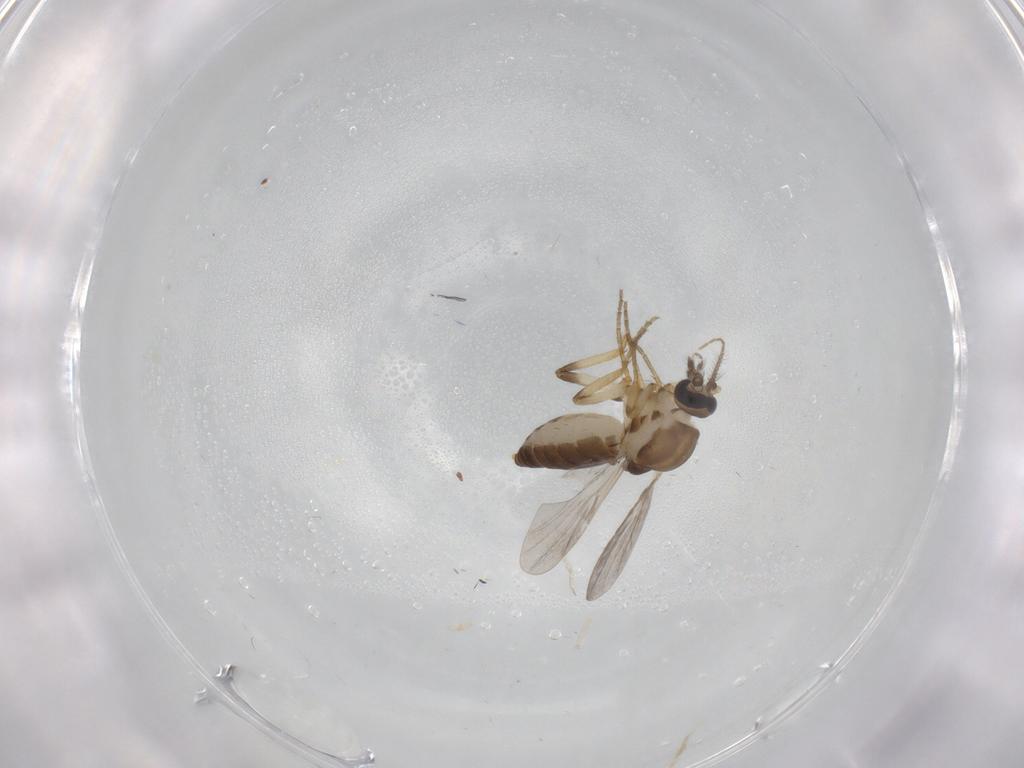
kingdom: Animalia
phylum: Arthropoda
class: Insecta
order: Diptera
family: Ceratopogonidae
